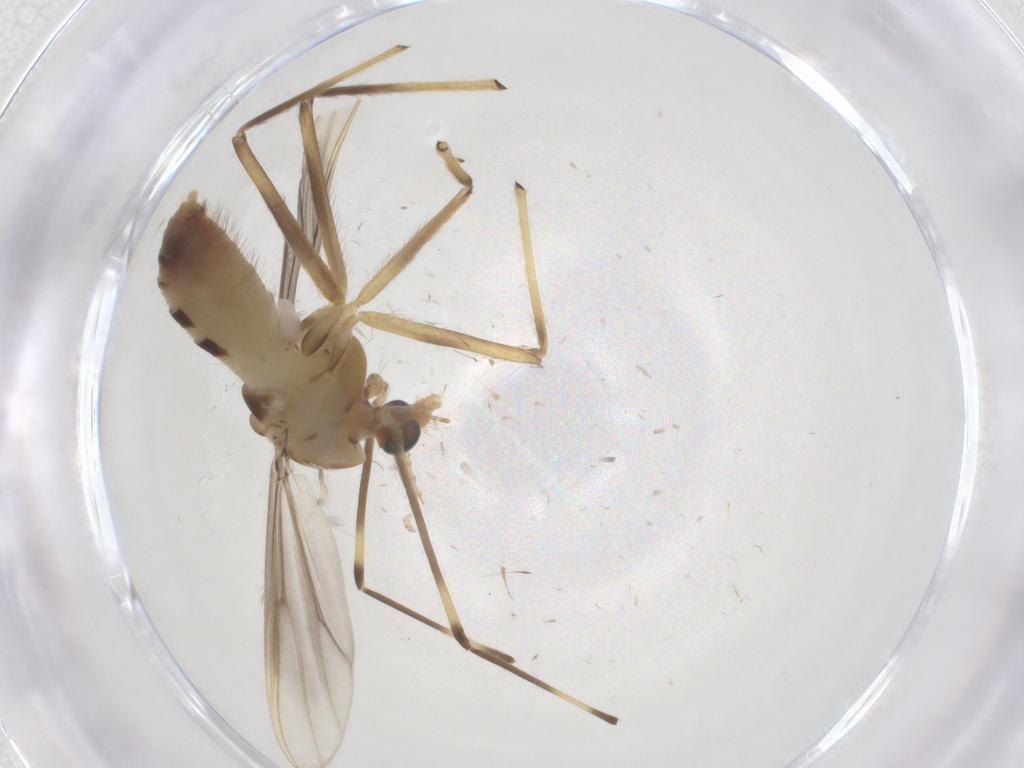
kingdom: Animalia
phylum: Arthropoda
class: Insecta
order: Diptera
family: Chironomidae
